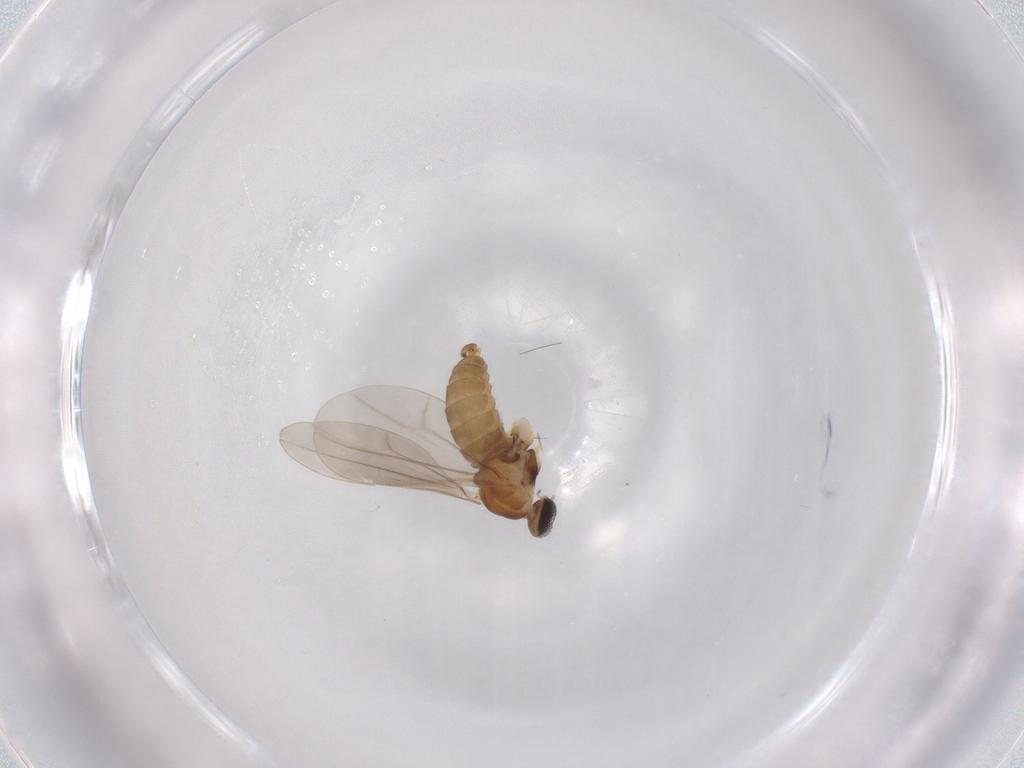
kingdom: Animalia
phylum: Arthropoda
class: Insecta
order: Diptera
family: Cecidomyiidae
